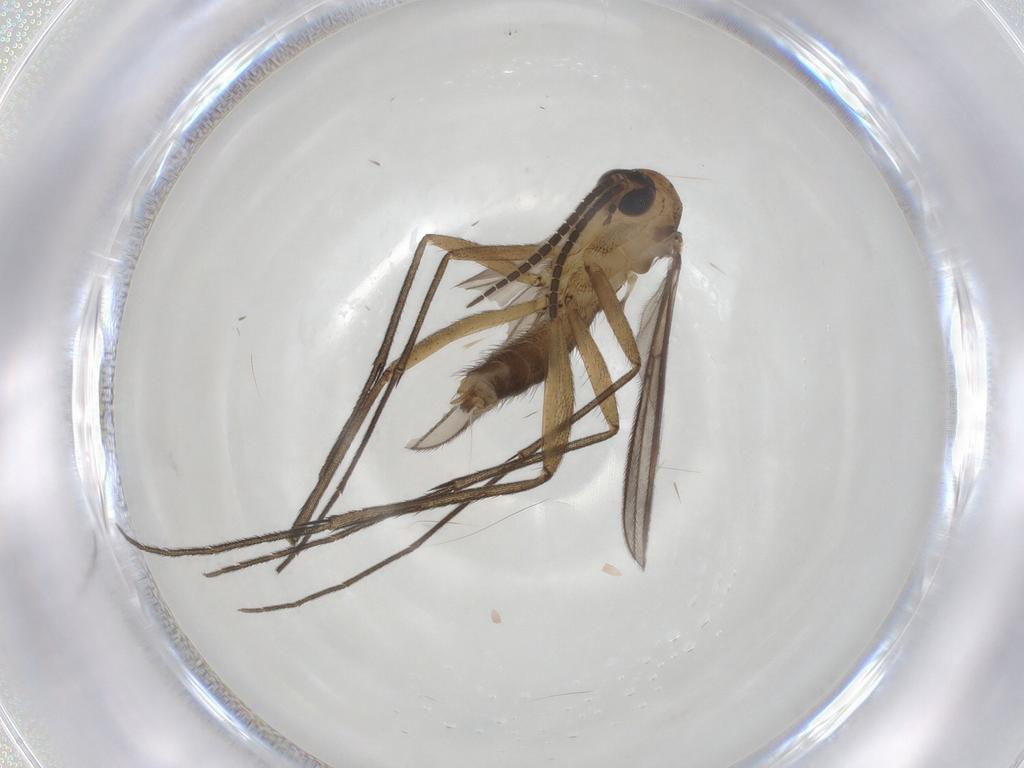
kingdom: Animalia
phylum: Arthropoda
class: Insecta
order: Diptera
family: Mycetophilidae
